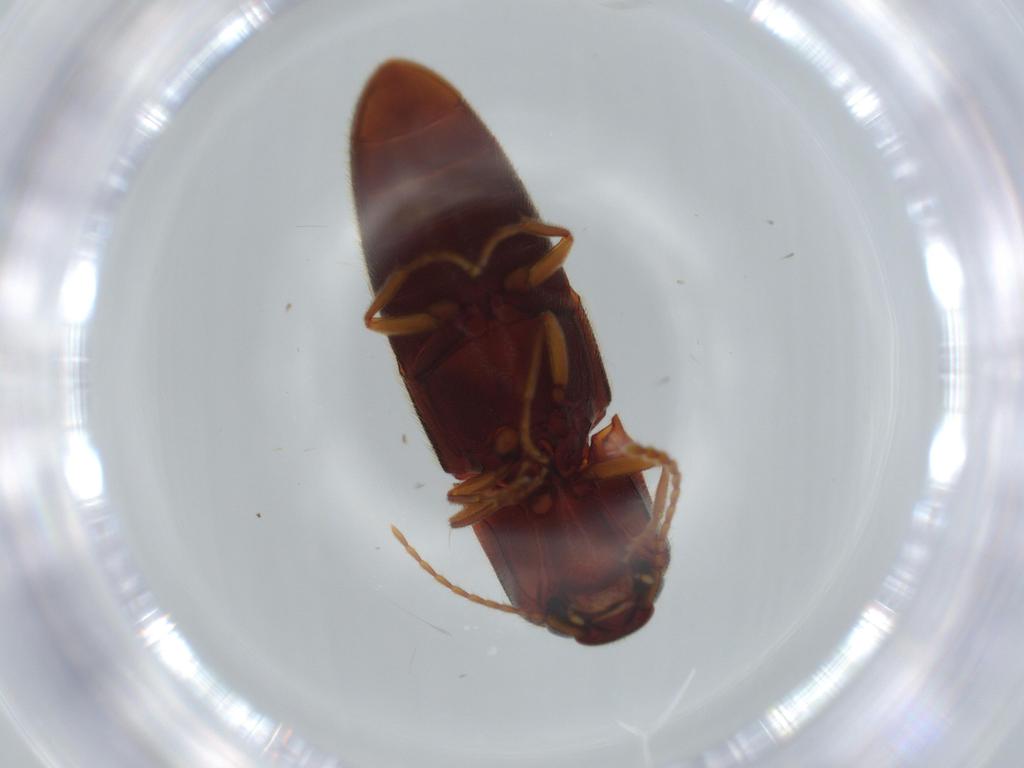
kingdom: Animalia
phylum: Arthropoda
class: Insecta
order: Coleoptera
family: Elateridae
